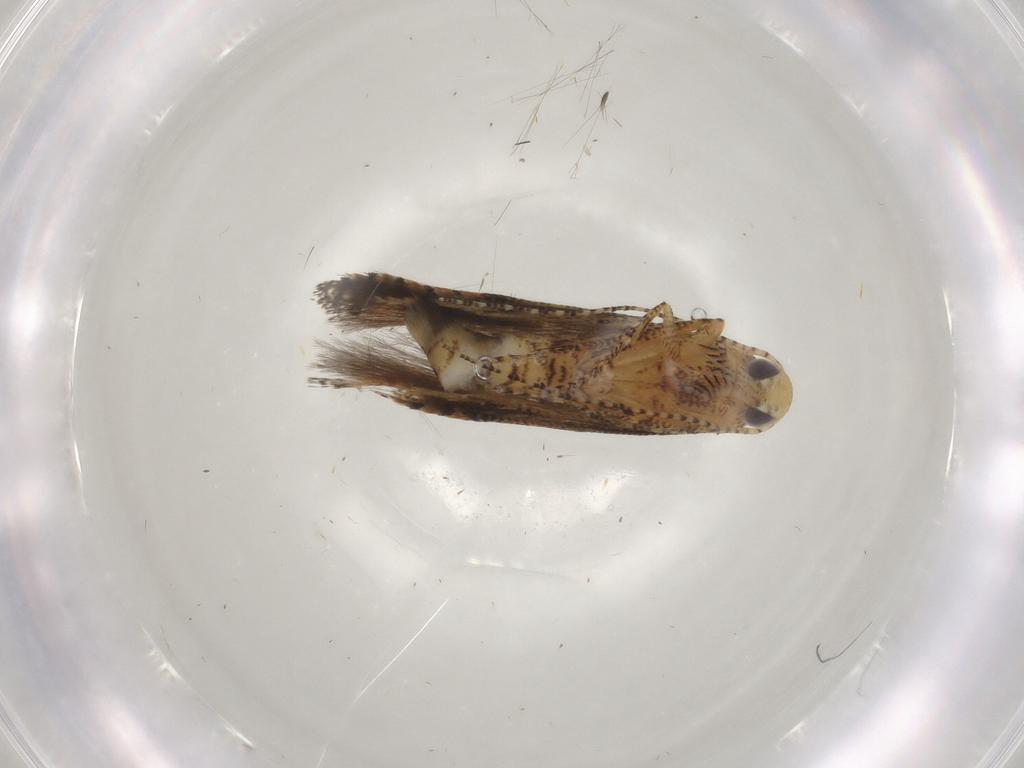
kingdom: Animalia
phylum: Arthropoda
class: Insecta
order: Lepidoptera
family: Gelechiidae
